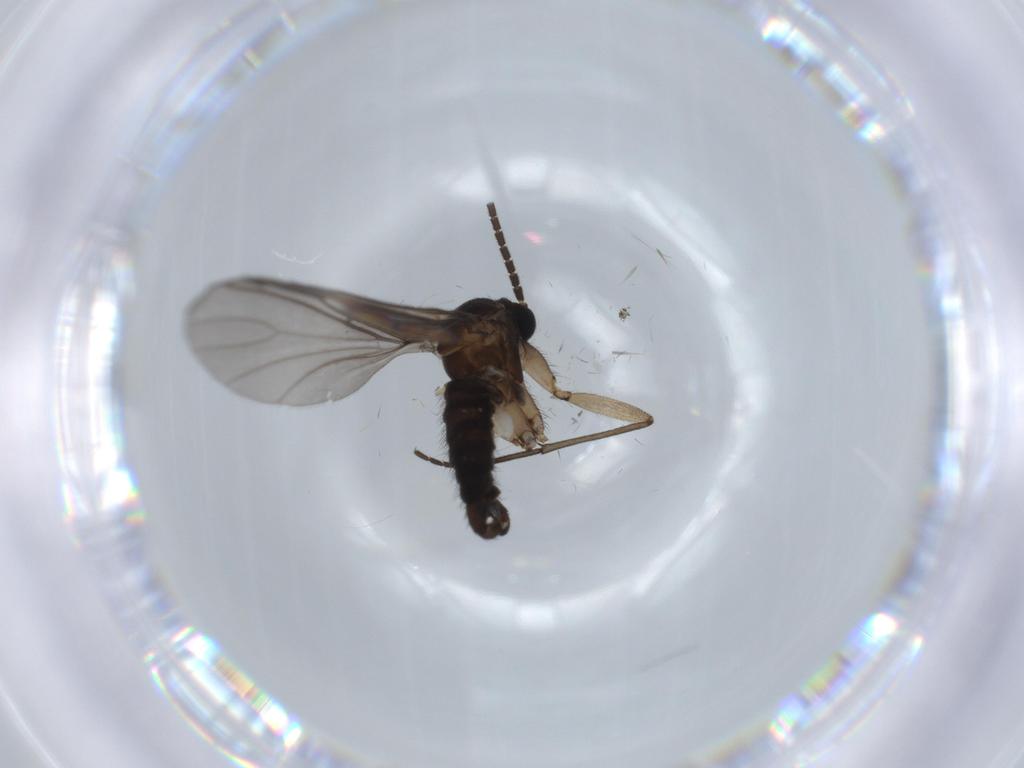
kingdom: Animalia
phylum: Arthropoda
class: Insecta
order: Diptera
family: Sciaridae
